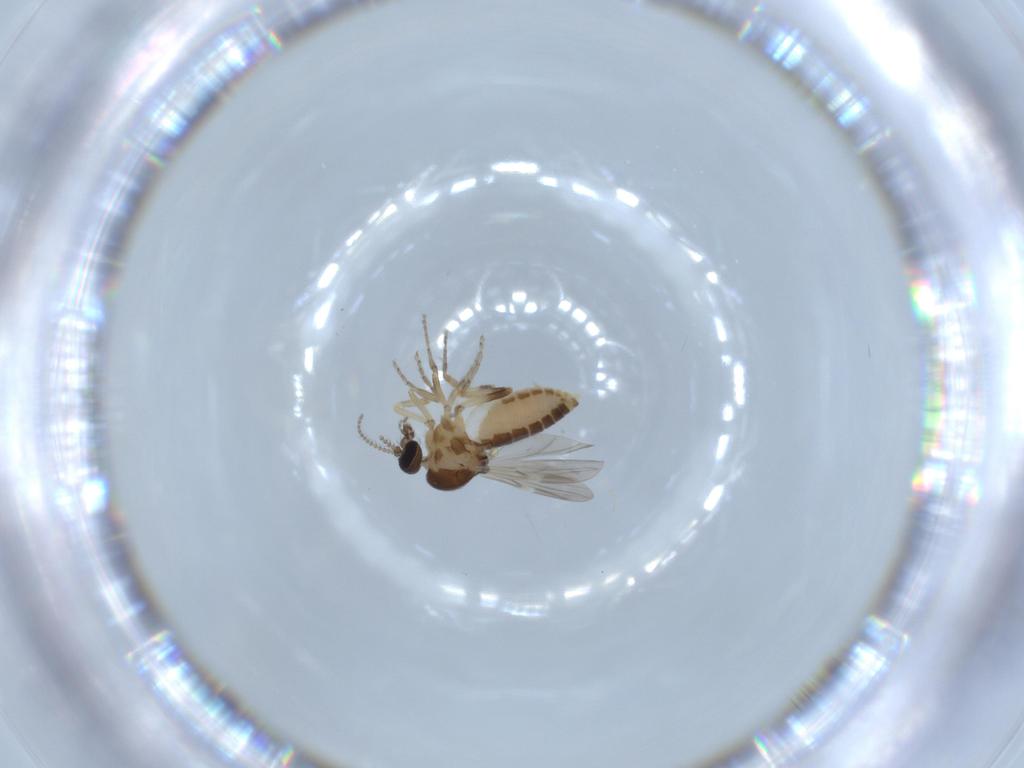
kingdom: Animalia
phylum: Arthropoda
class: Insecta
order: Diptera
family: Ceratopogonidae
